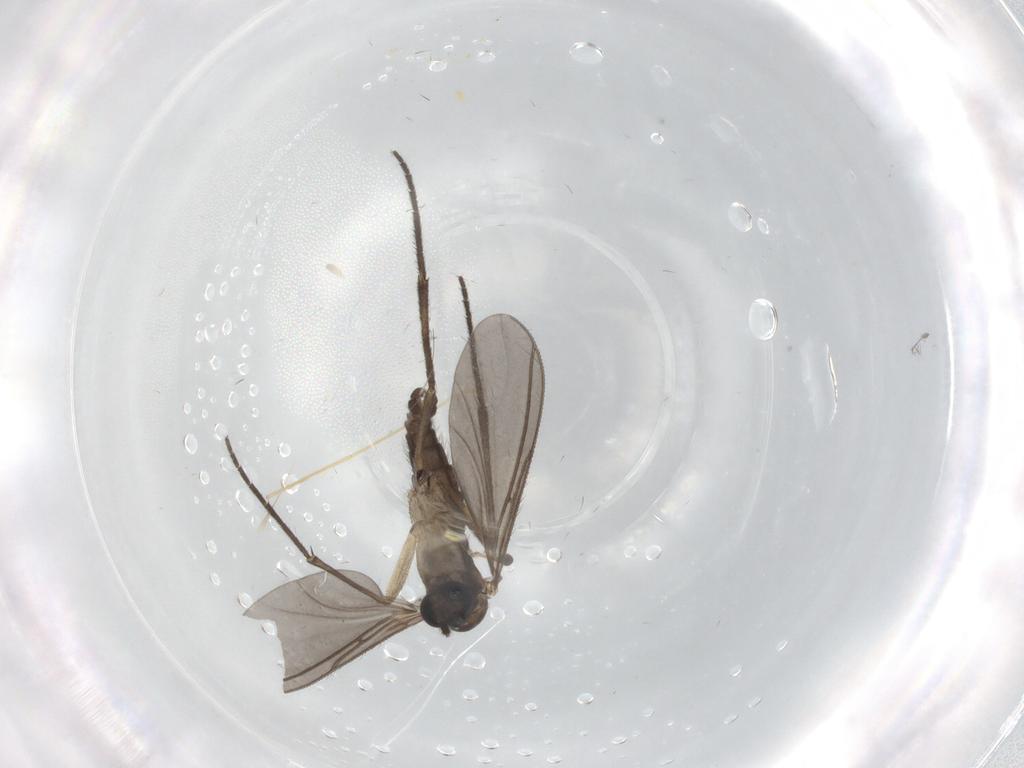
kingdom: Animalia
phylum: Arthropoda
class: Insecta
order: Diptera
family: Sciaridae
